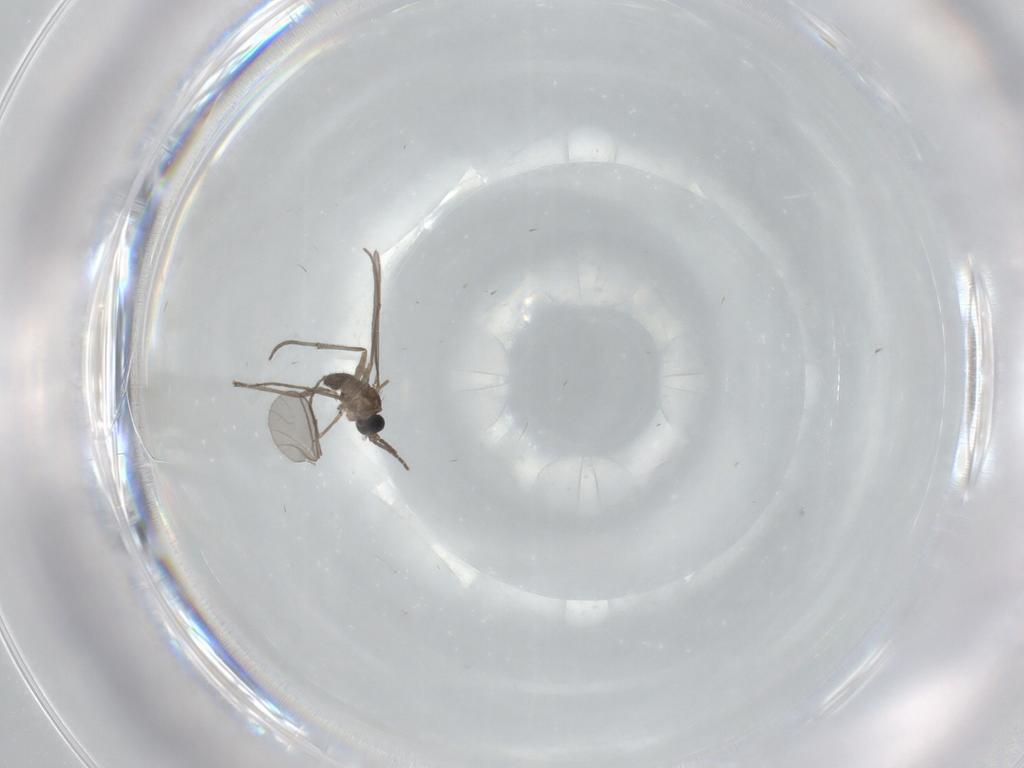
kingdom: Animalia
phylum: Arthropoda
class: Insecta
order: Diptera
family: Sciaridae
